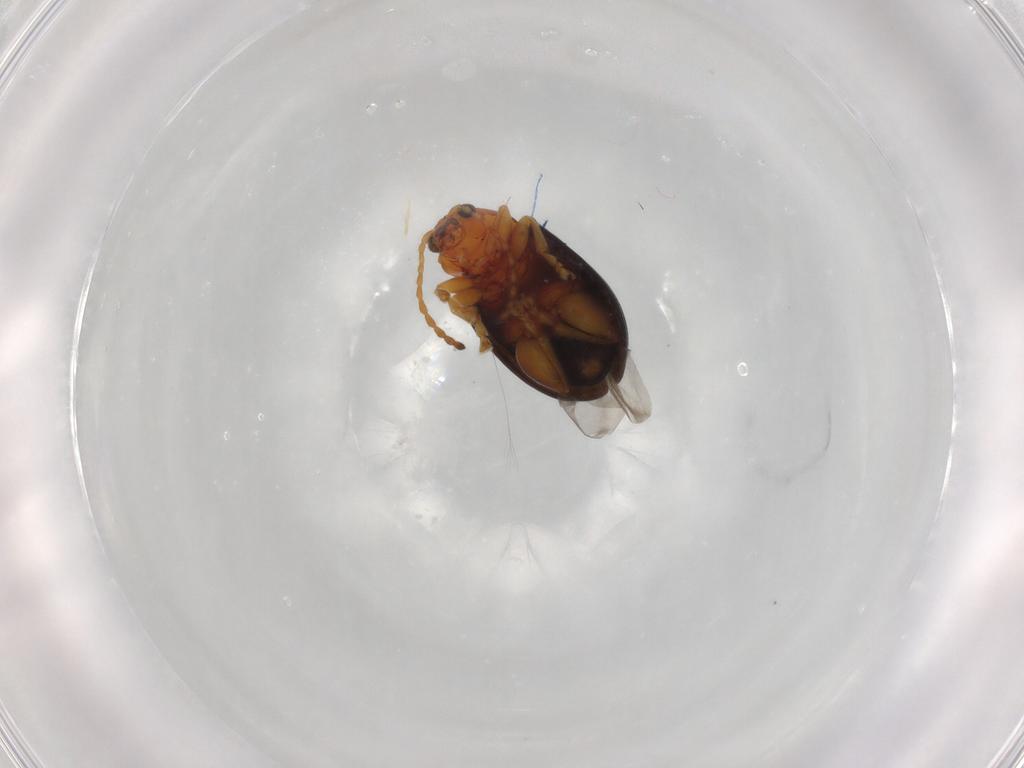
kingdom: Animalia
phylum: Arthropoda
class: Insecta
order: Coleoptera
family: Chrysomelidae
